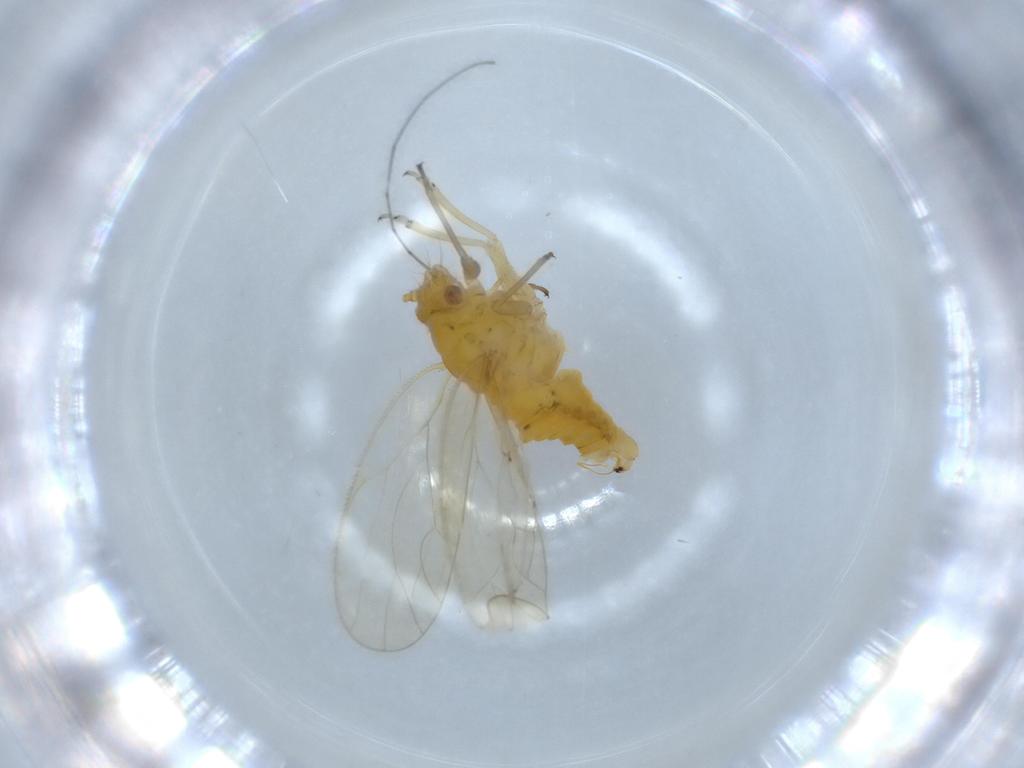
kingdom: Animalia
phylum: Arthropoda
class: Insecta
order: Hemiptera
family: Psyllidae
